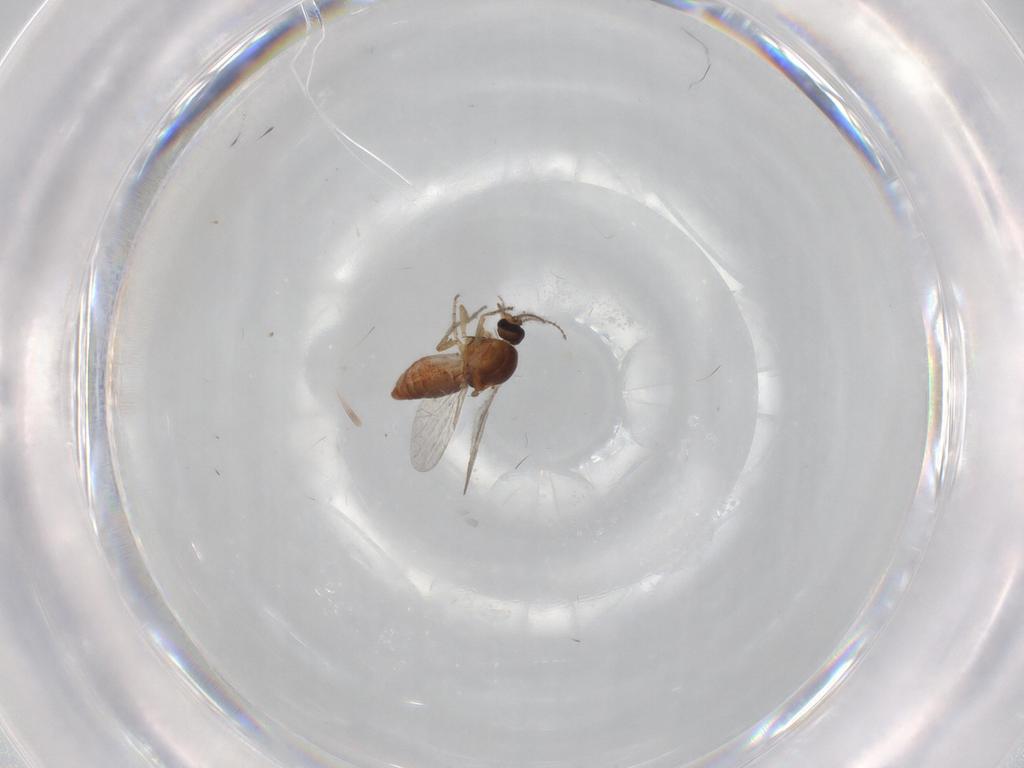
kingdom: Animalia
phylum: Arthropoda
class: Insecta
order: Diptera
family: Ceratopogonidae
